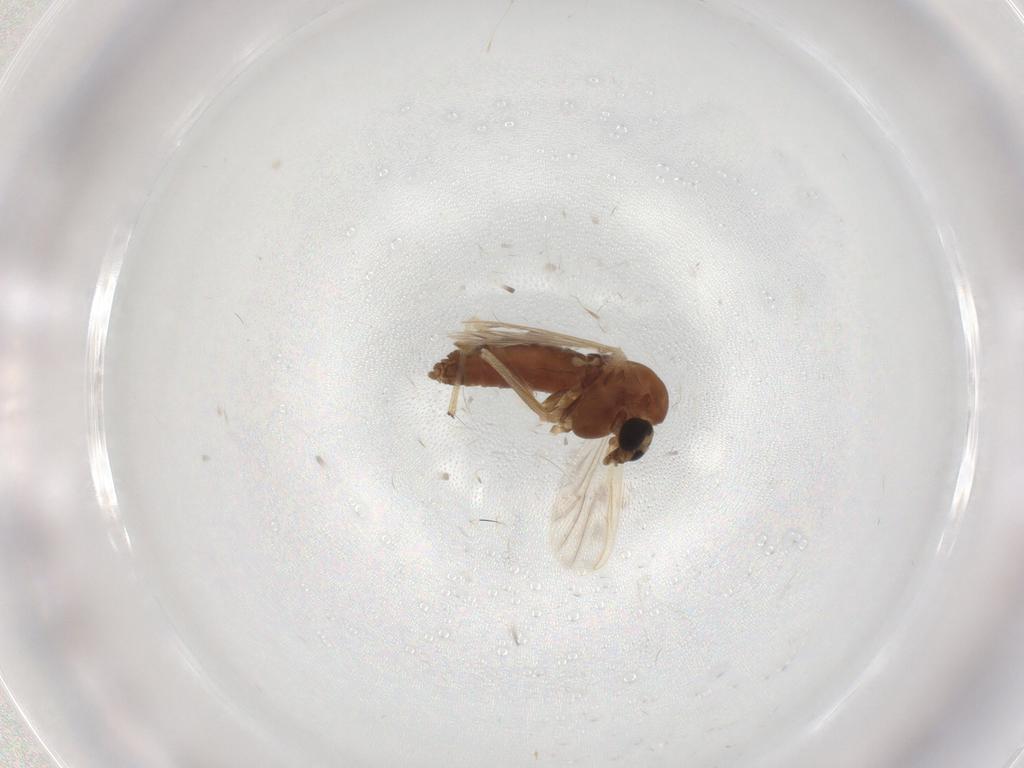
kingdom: Animalia
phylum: Arthropoda
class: Insecta
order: Diptera
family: Chironomidae
